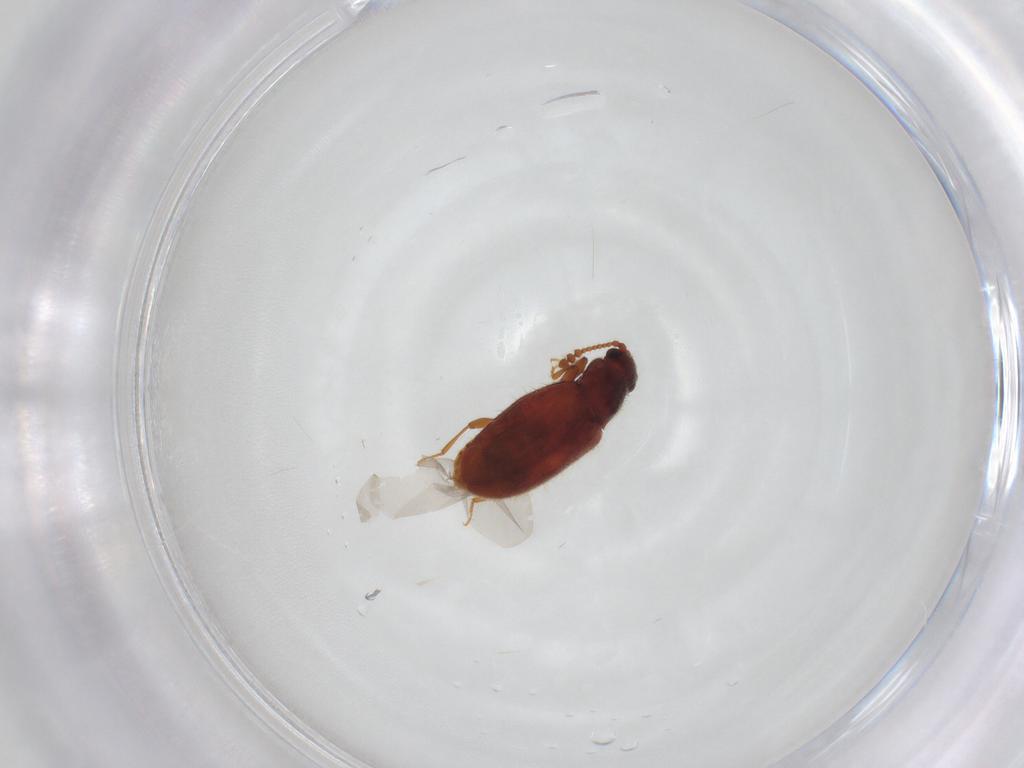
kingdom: Animalia
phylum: Arthropoda
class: Insecta
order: Coleoptera
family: Cryptophagidae
